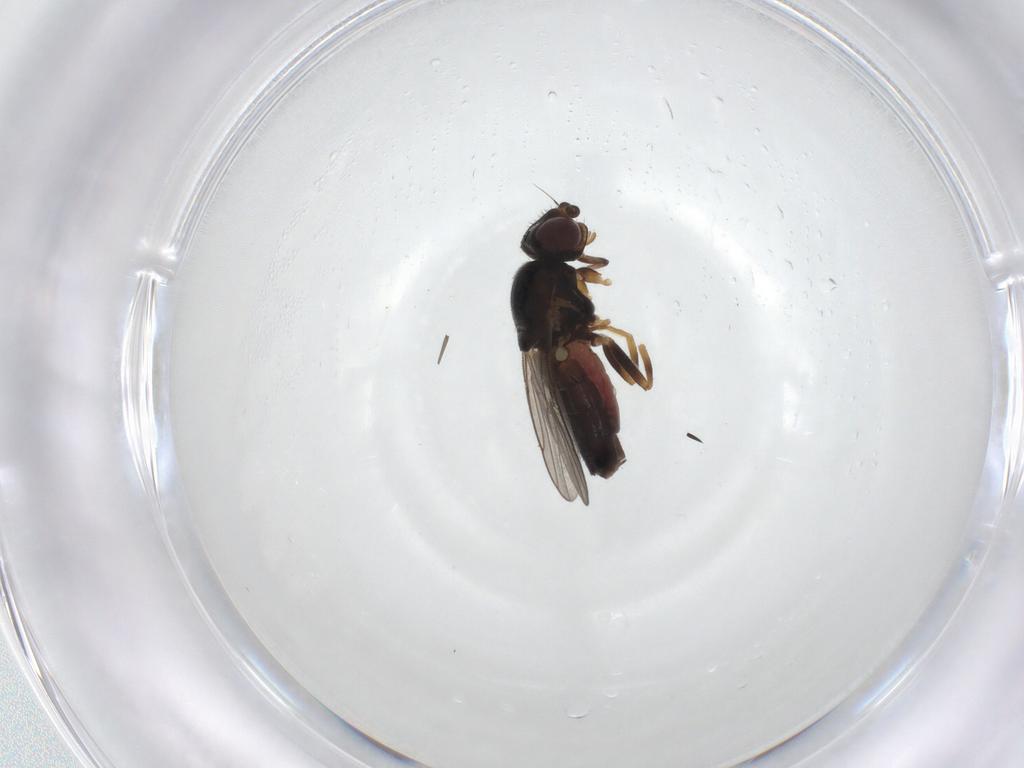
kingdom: Animalia
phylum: Arthropoda
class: Insecta
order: Diptera
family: Chloropidae
